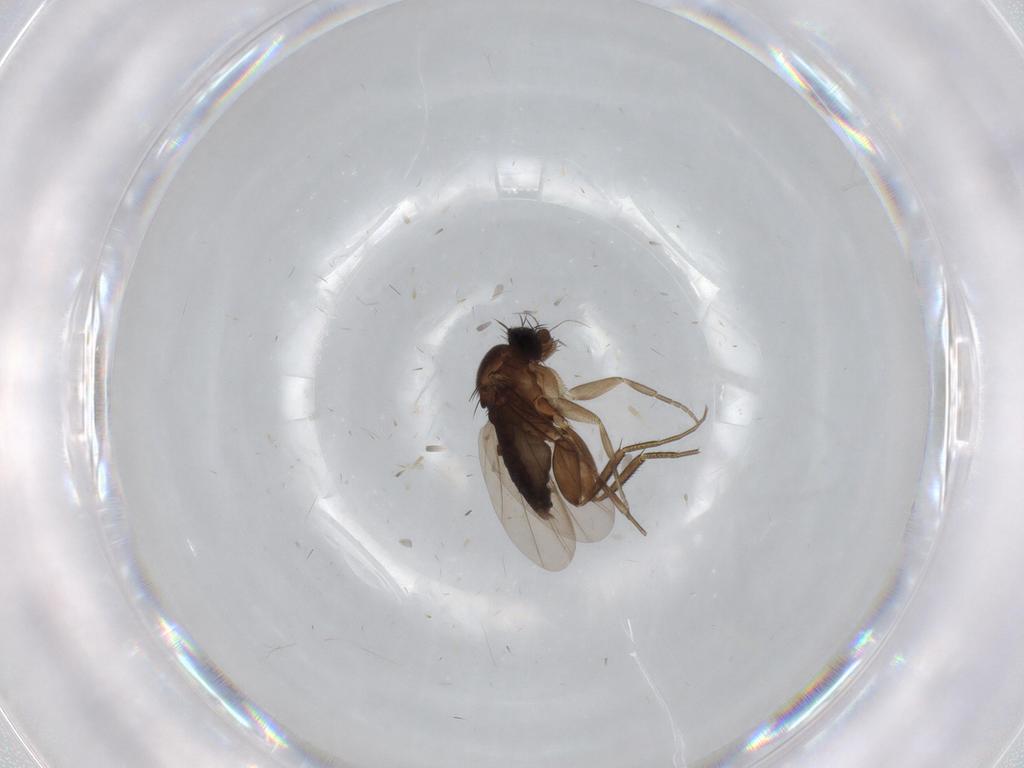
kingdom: Animalia
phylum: Arthropoda
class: Insecta
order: Diptera
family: Phoridae
